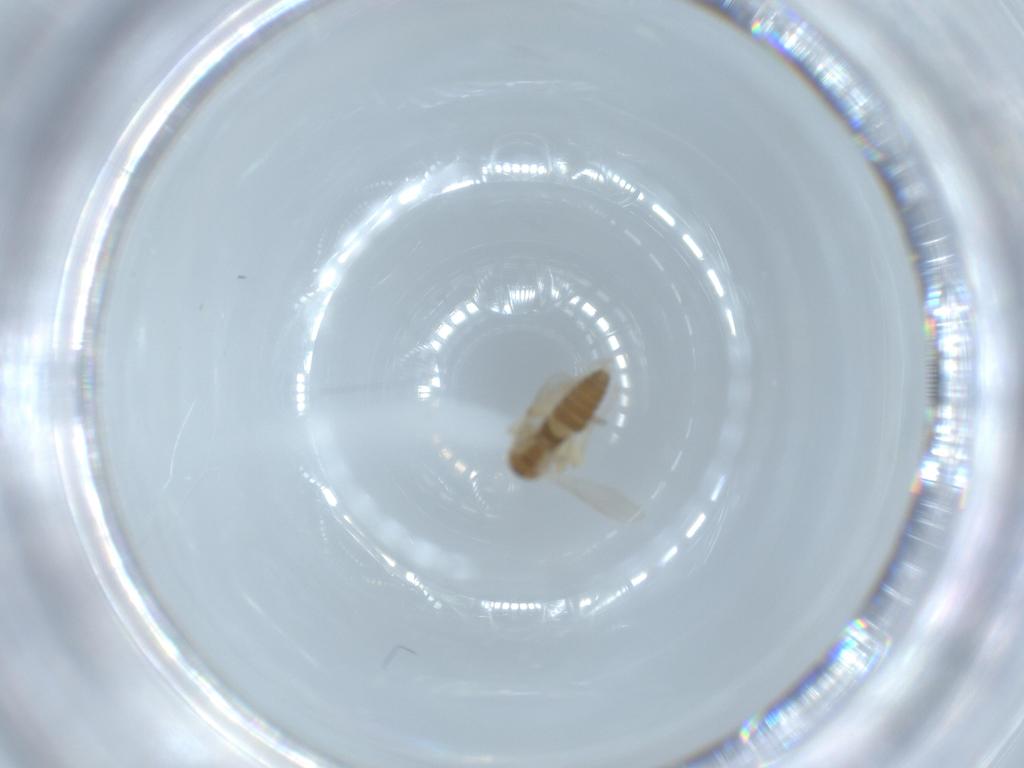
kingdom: Animalia
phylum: Arthropoda
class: Insecta
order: Diptera
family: Ceratopogonidae
